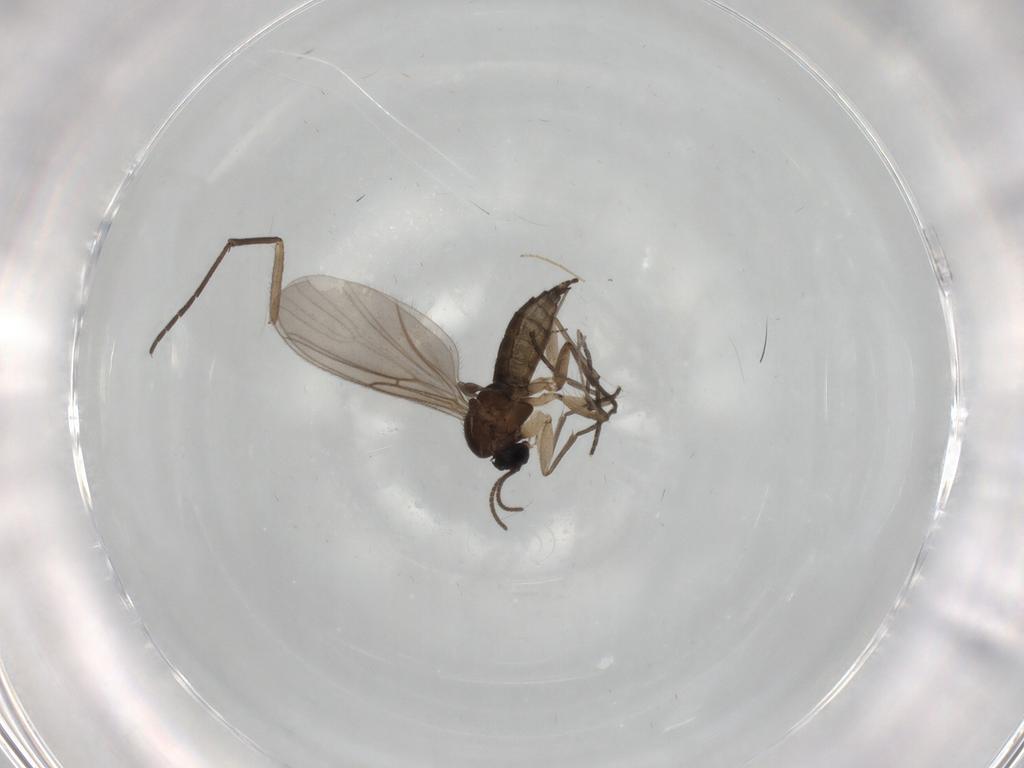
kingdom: Animalia
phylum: Arthropoda
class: Insecta
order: Diptera
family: Sciaridae
